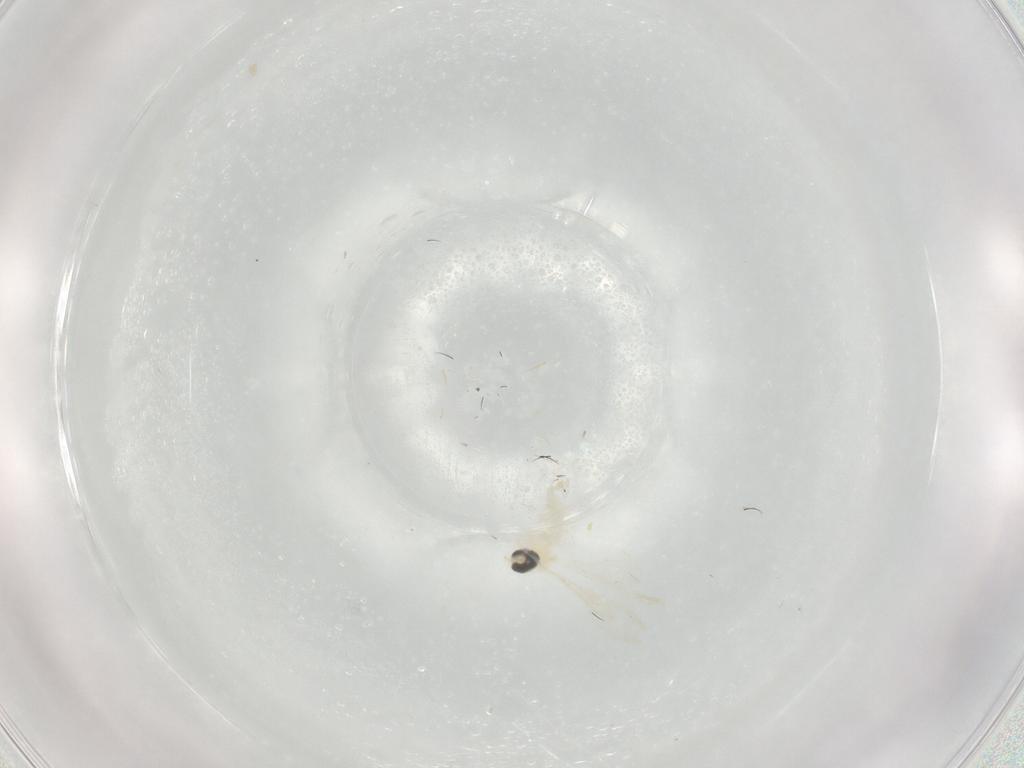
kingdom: Animalia
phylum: Arthropoda
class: Insecta
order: Diptera
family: Cecidomyiidae
